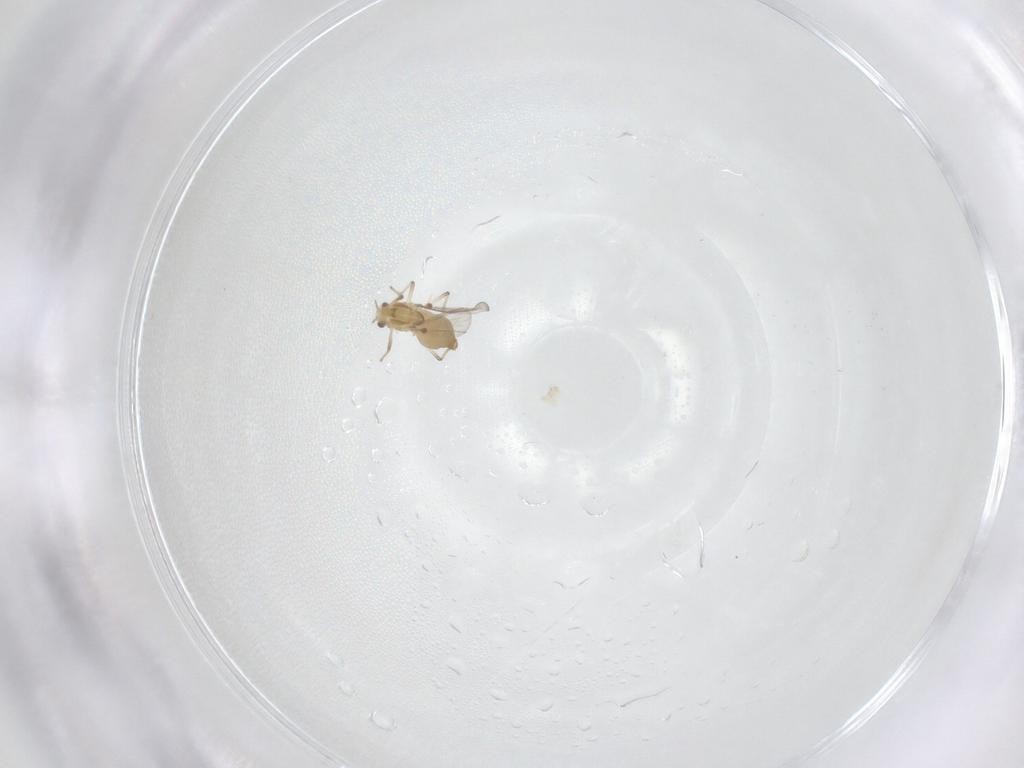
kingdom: Animalia
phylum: Arthropoda
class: Insecta
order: Diptera
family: Chironomidae
